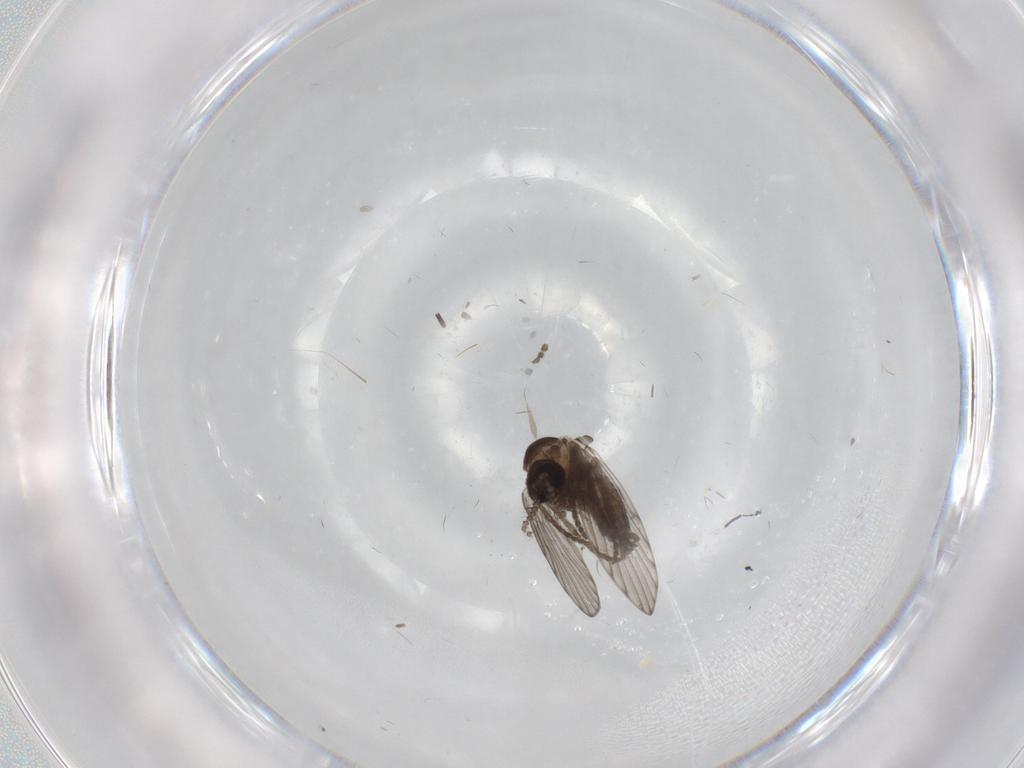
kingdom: Animalia
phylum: Arthropoda
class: Insecta
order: Diptera
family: Psychodidae
